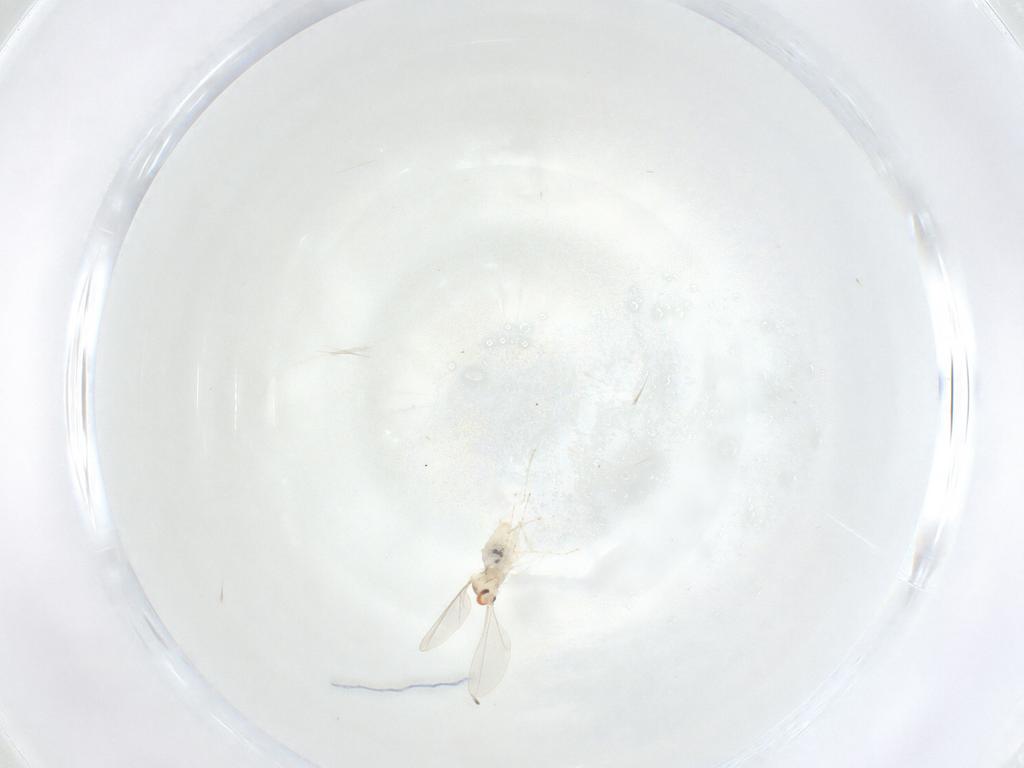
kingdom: Animalia
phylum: Arthropoda
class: Insecta
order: Diptera
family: Cecidomyiidae
